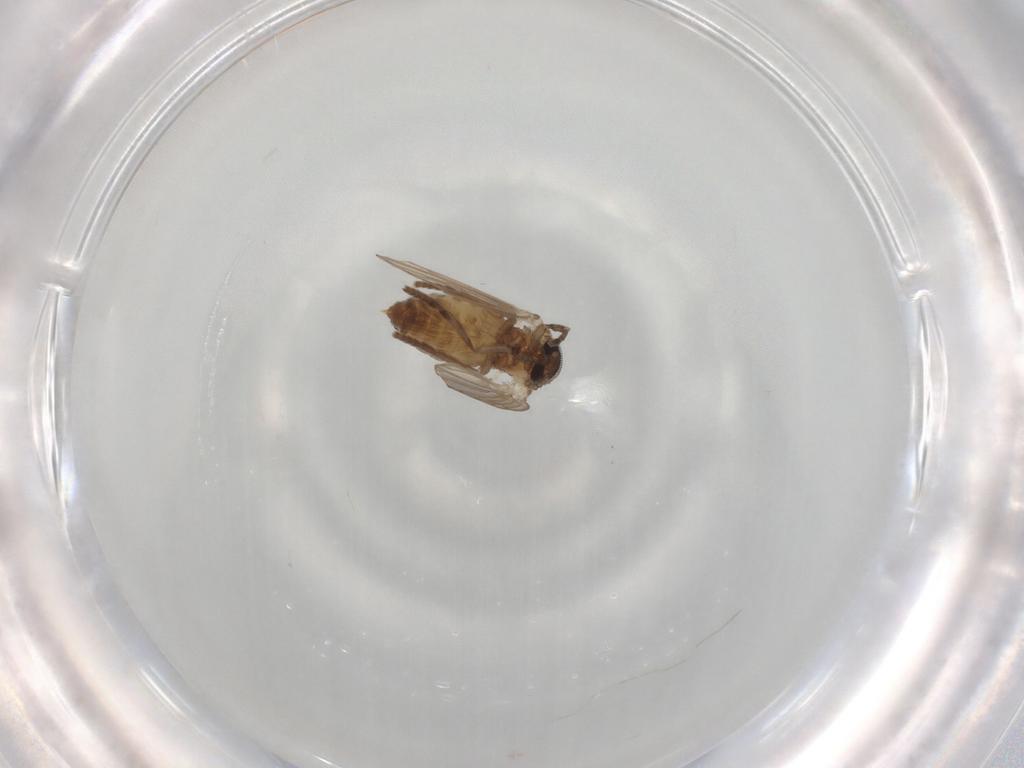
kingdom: Animalia
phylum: Arthropoda
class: Insecta
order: Diptera
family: Psychodidae
